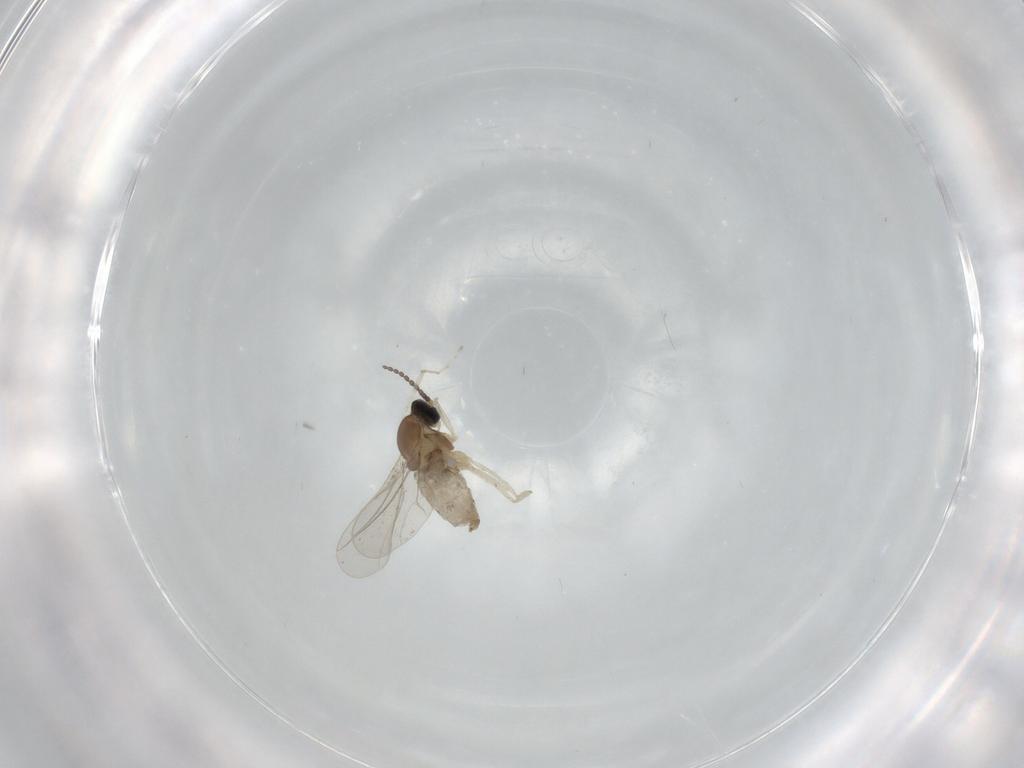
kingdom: Animalia
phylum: Arthropoda
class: Insecta
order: Diptera
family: Cecidomyiidae
